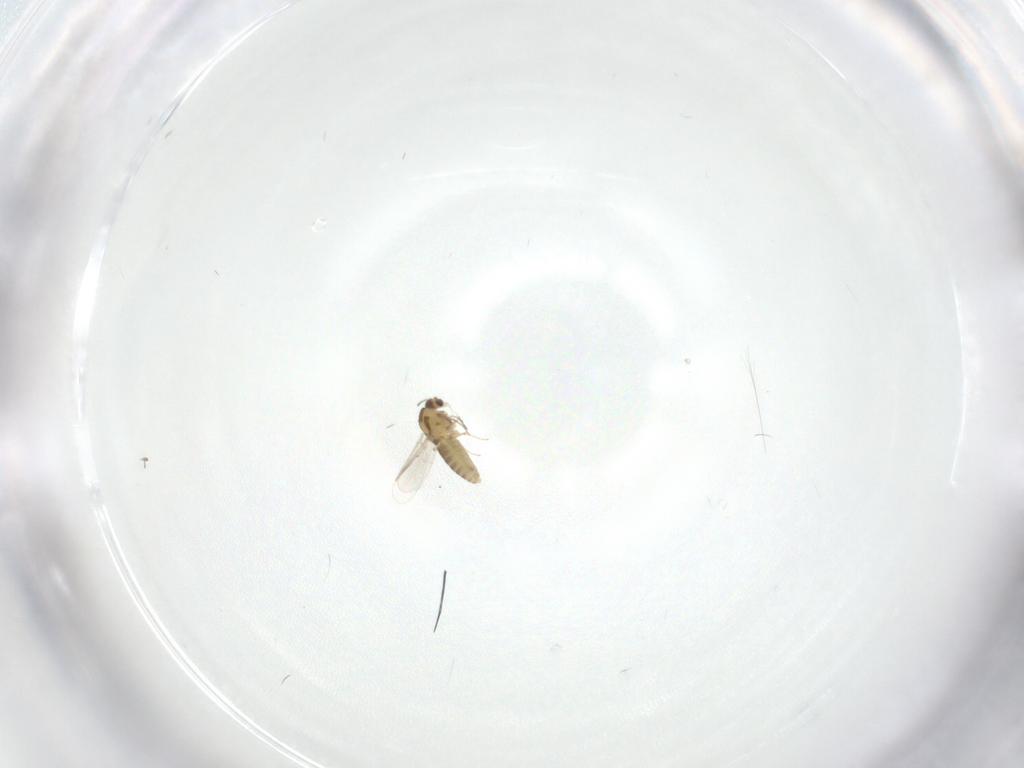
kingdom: Animalia
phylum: Arthropoda
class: Insecta
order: Diptera
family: Chironomidae
